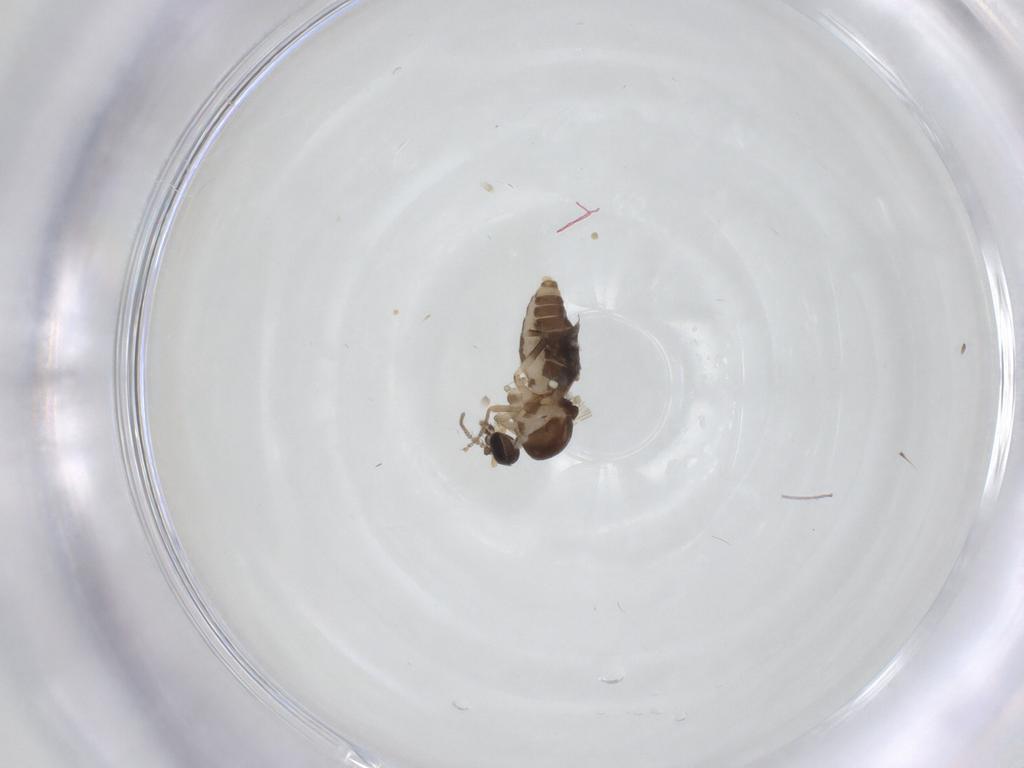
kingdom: Animalia
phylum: Arthropoda
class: Insecta
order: Diptera
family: Ceratopogonidae
